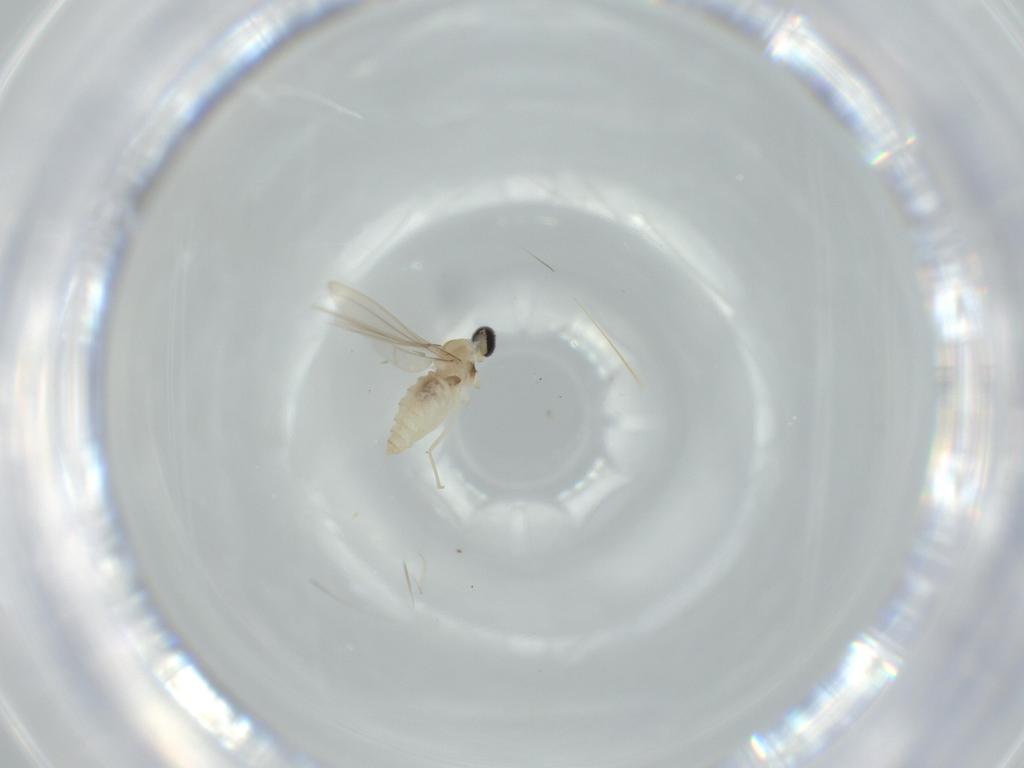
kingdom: Animalia
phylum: Arthropoda
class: Insecta
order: Diptera
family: Cecidomyiidae
